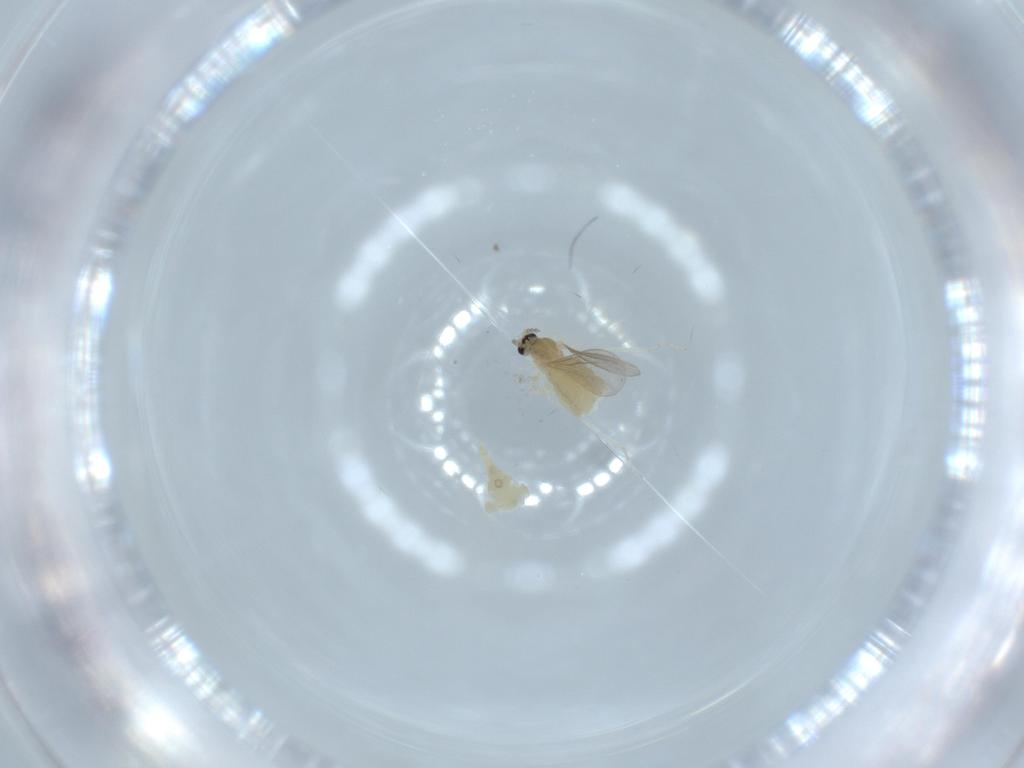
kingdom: Animalia
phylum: Arthropoda
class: Insecta
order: Diptera
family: Cecidomyiidae
